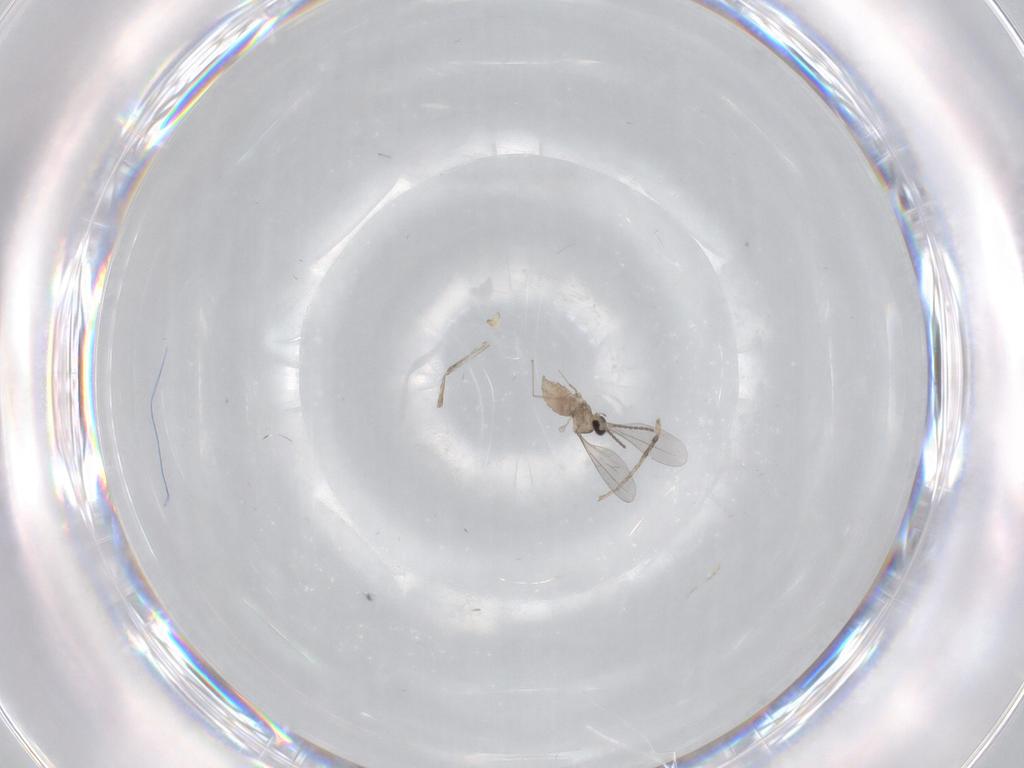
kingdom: Animalia
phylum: Arthropoda
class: Insecta
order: Diptera
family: Cecidomyiidae
